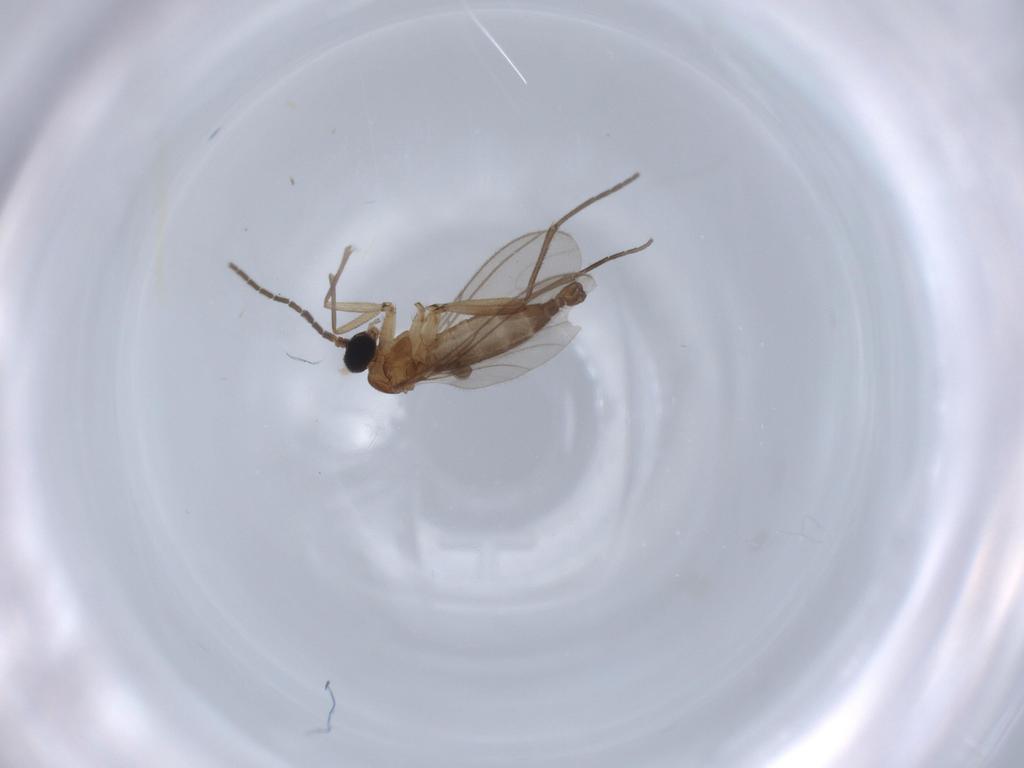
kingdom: Animalia
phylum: Arthropoda
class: Insecta
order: Diptera
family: Sciaridae
